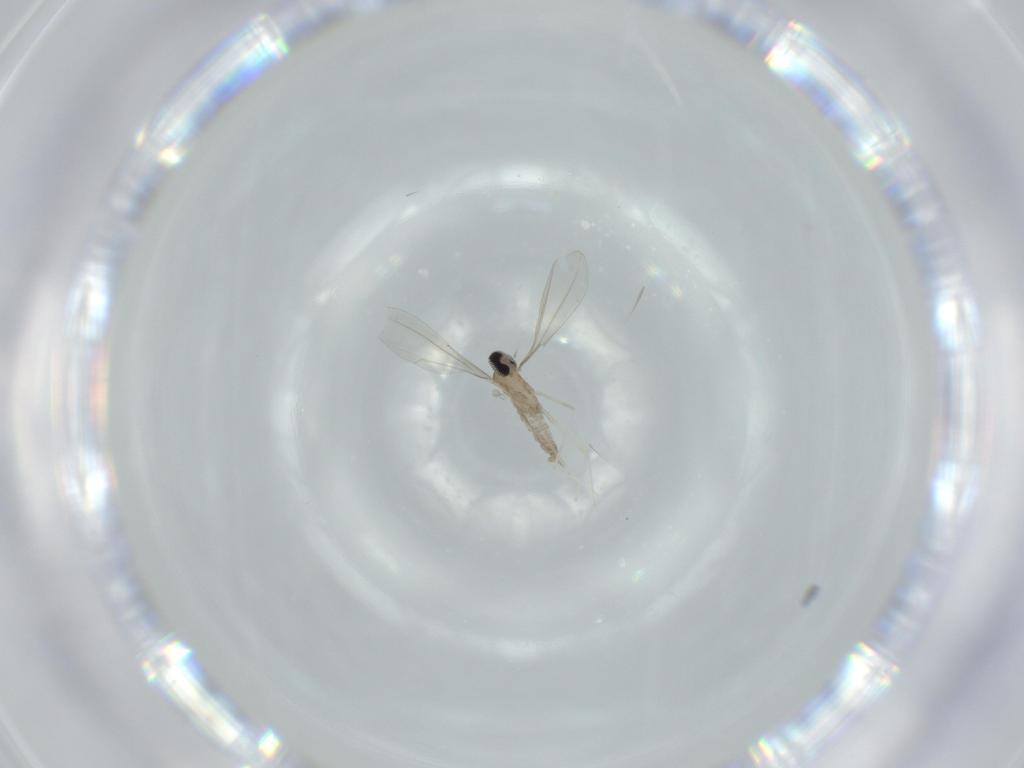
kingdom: Animalia
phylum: Arthropoda
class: Insecta
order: Diptera
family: Cecidomyiidae
